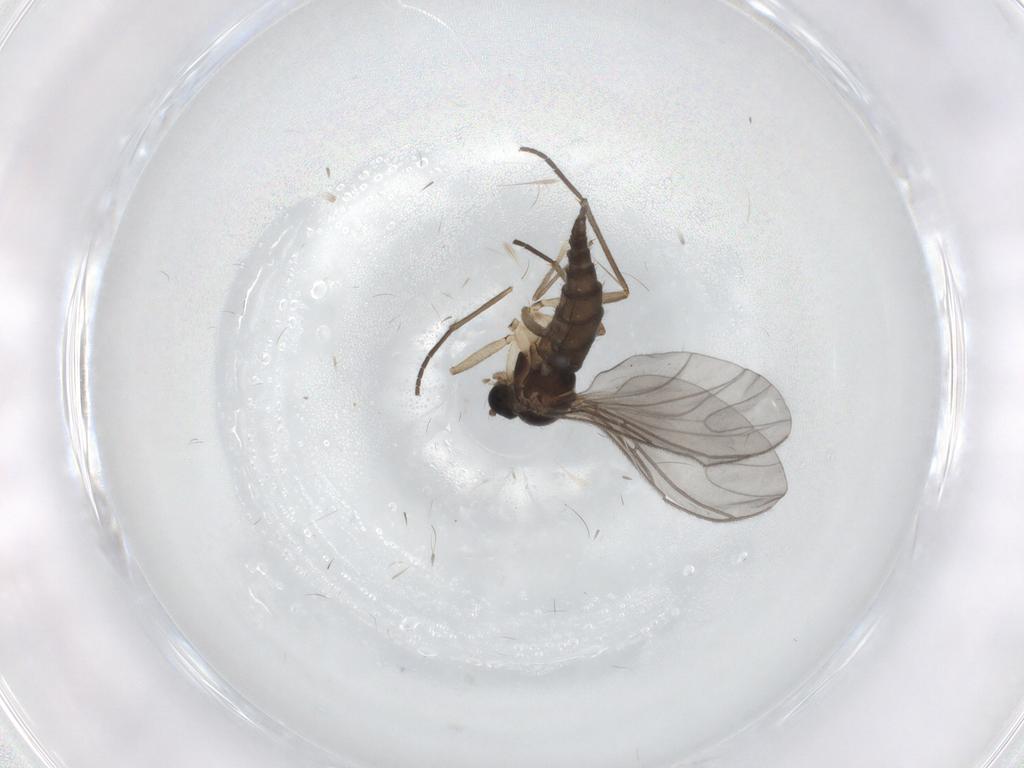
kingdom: Animalia
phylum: Arthropoda
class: Insecta
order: Diptera
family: Sciaridae
